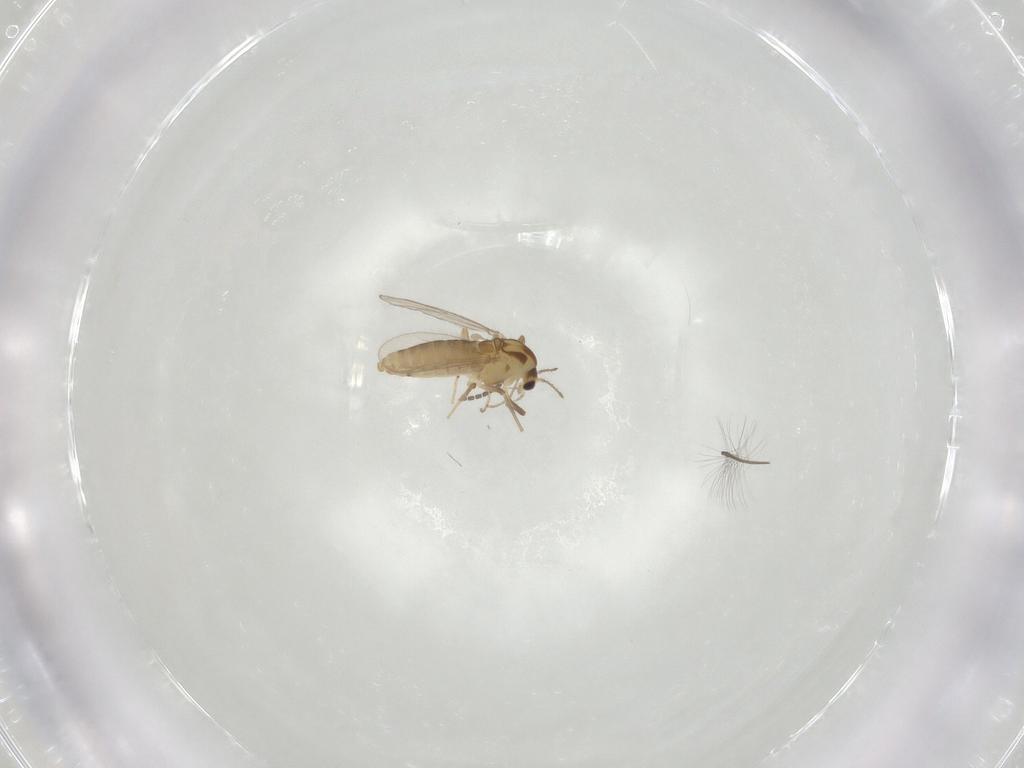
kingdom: Animalia
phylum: Arthropoda
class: Insecta
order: Diptera
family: Chironomidae
